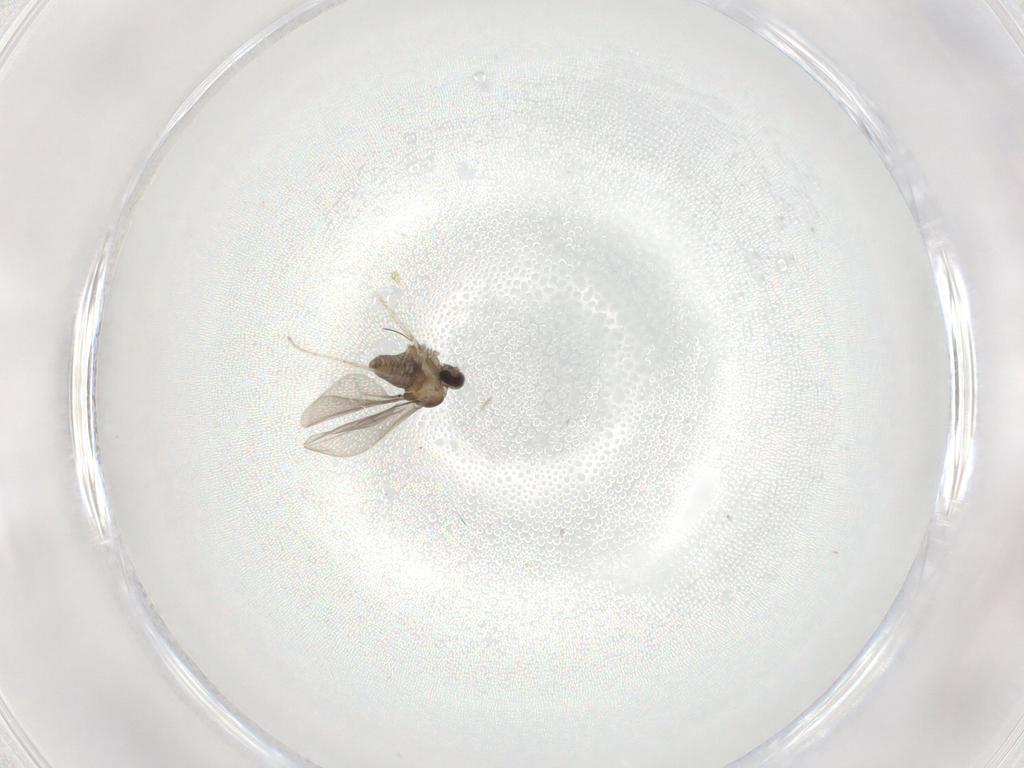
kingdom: Animalia
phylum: Arthropoda
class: Insecta
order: Diptera
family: Cecidomyiidae
